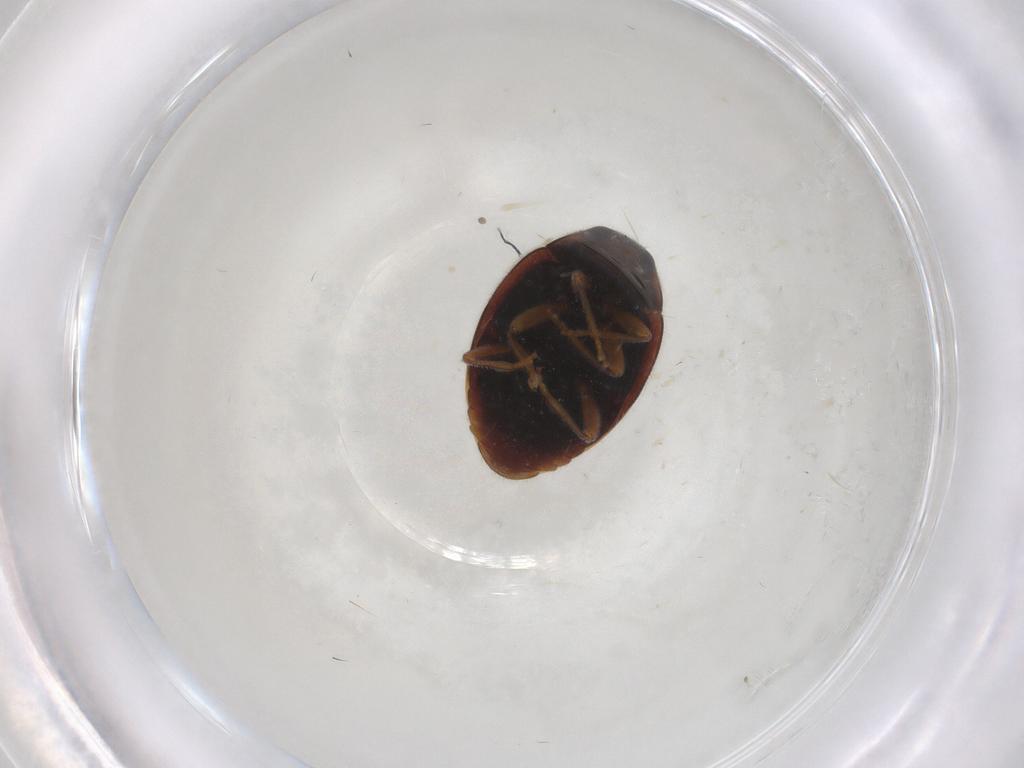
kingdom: Animalia
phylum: Arthropoda
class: Insecta
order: Coleoptera
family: Coccinellidae
